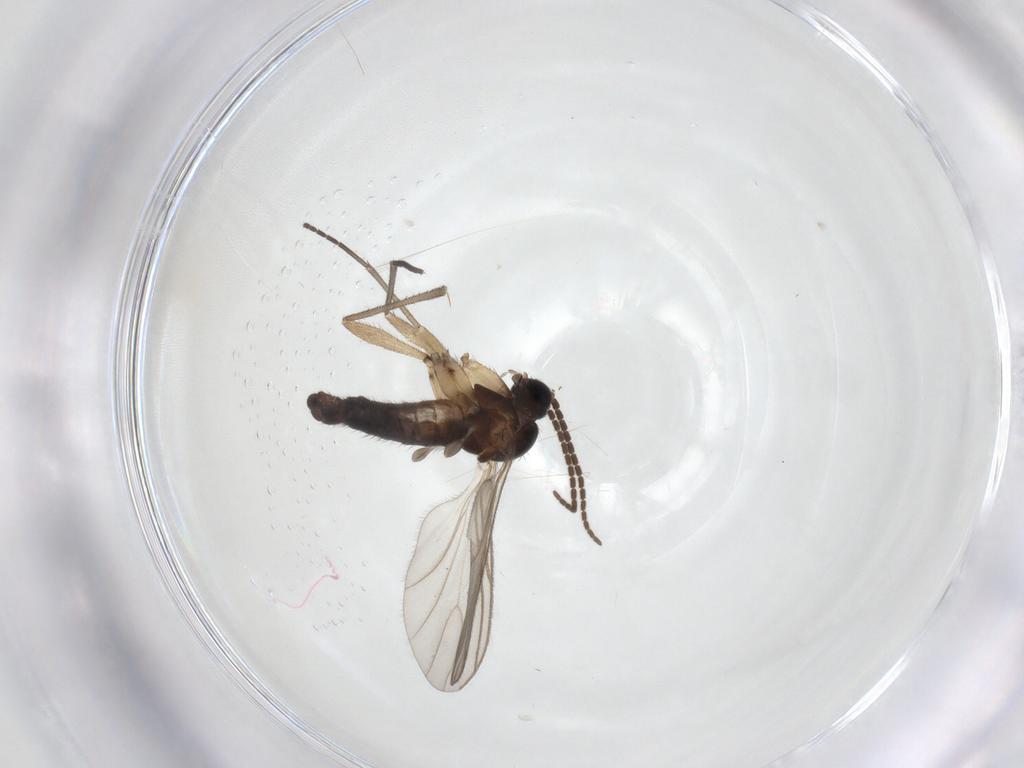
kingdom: Animalia
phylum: Arthropoda
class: Insecta
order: Diptera
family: Sciaridae
